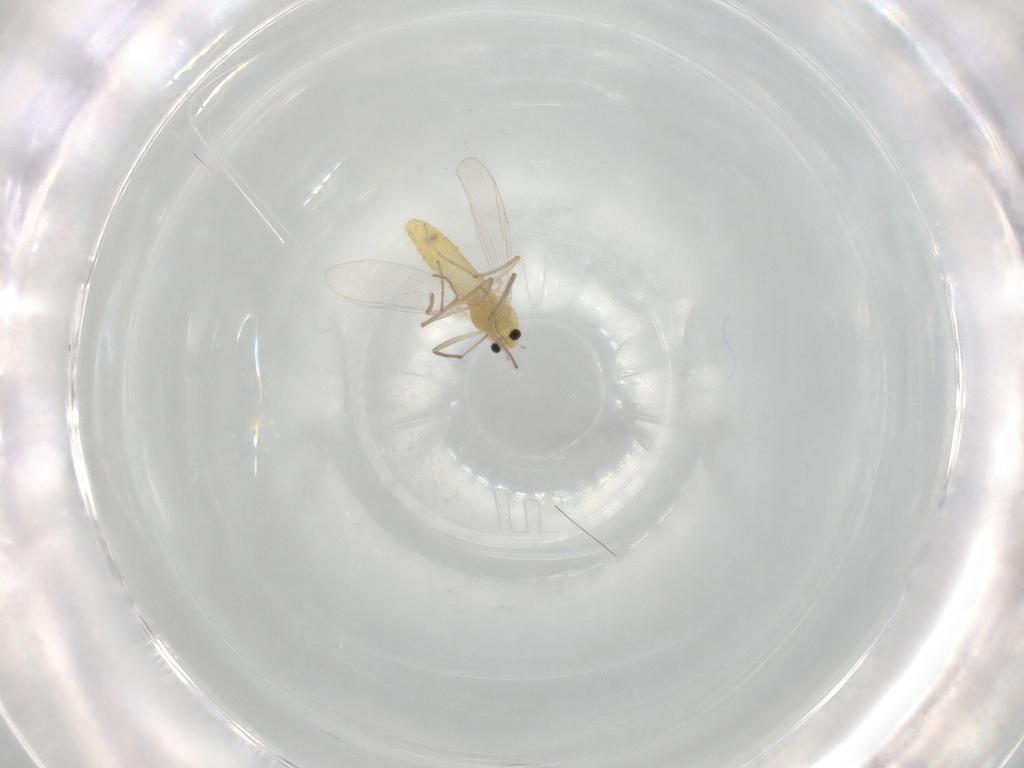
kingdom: Animalia
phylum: Arthropoda
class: Insecta
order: Diptera
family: Chironomidae
